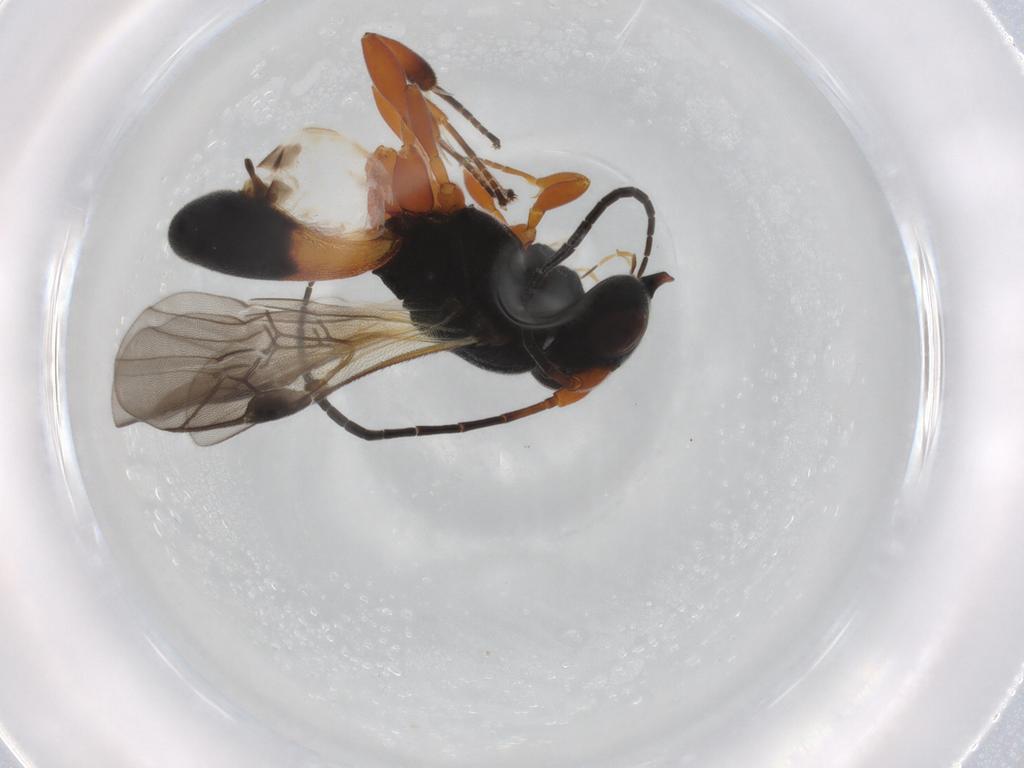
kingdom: Animalia
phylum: Arthropoda
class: Insecta
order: Hymenoptera
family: Braconidae
